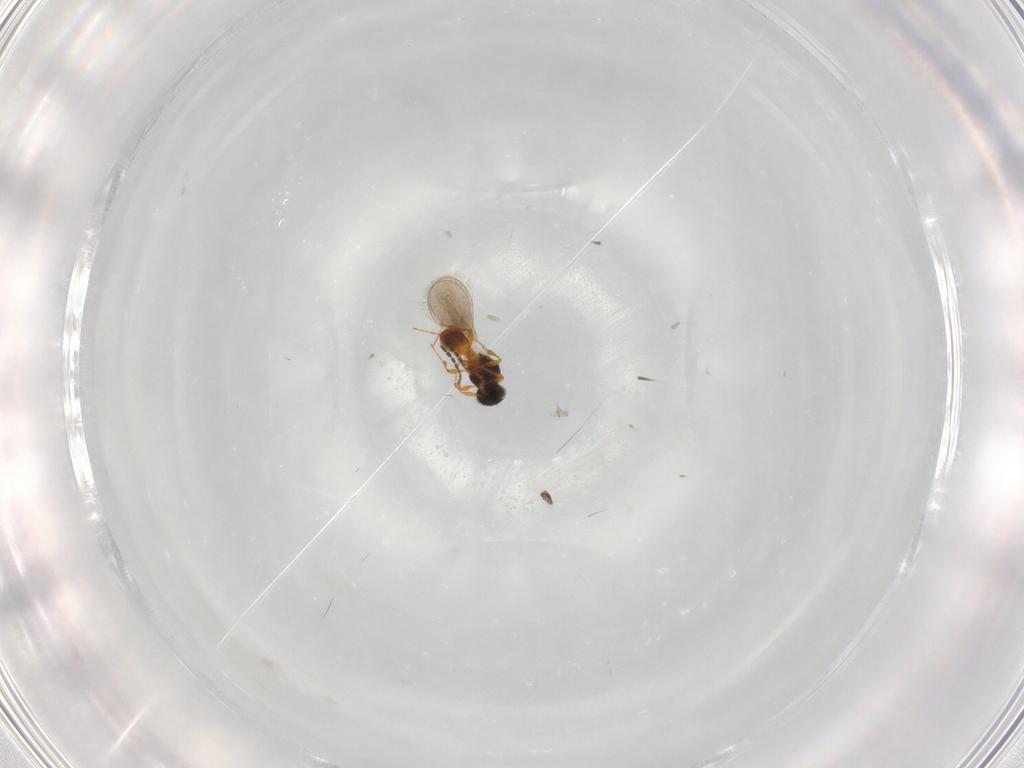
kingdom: Animalia
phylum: Arthropoda
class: Insecta
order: Hymenoptera
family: Platygastridae
